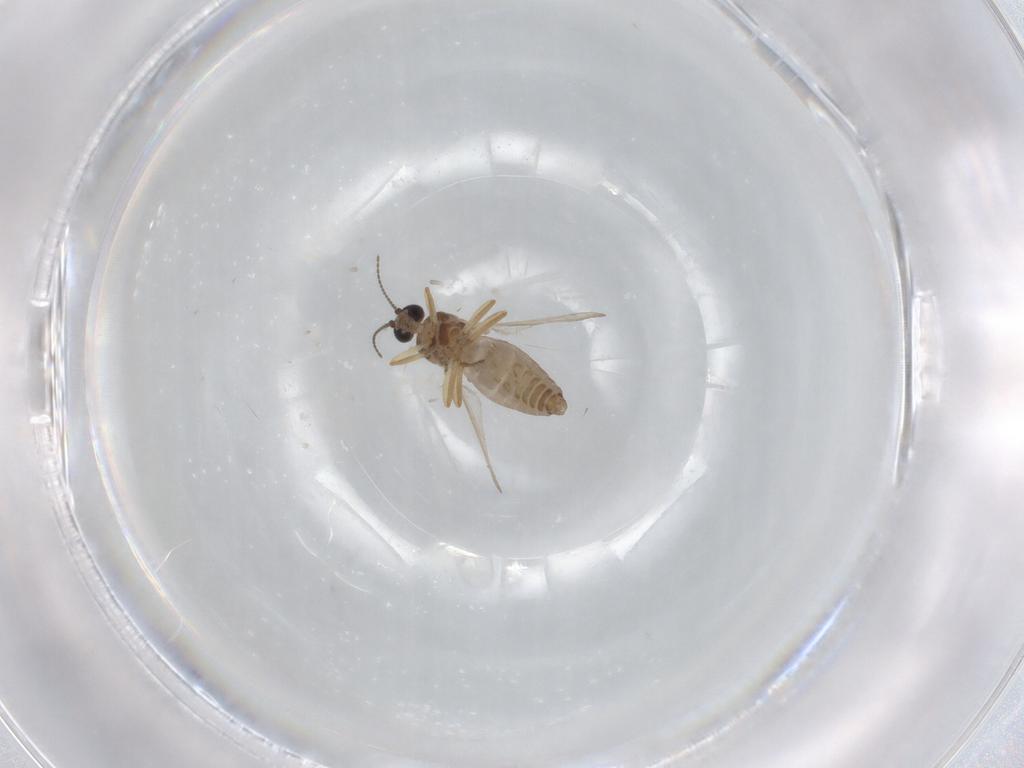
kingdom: Animalia
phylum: Arthropoda
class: Insecta
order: Diptera
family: Ceratopogonidae
